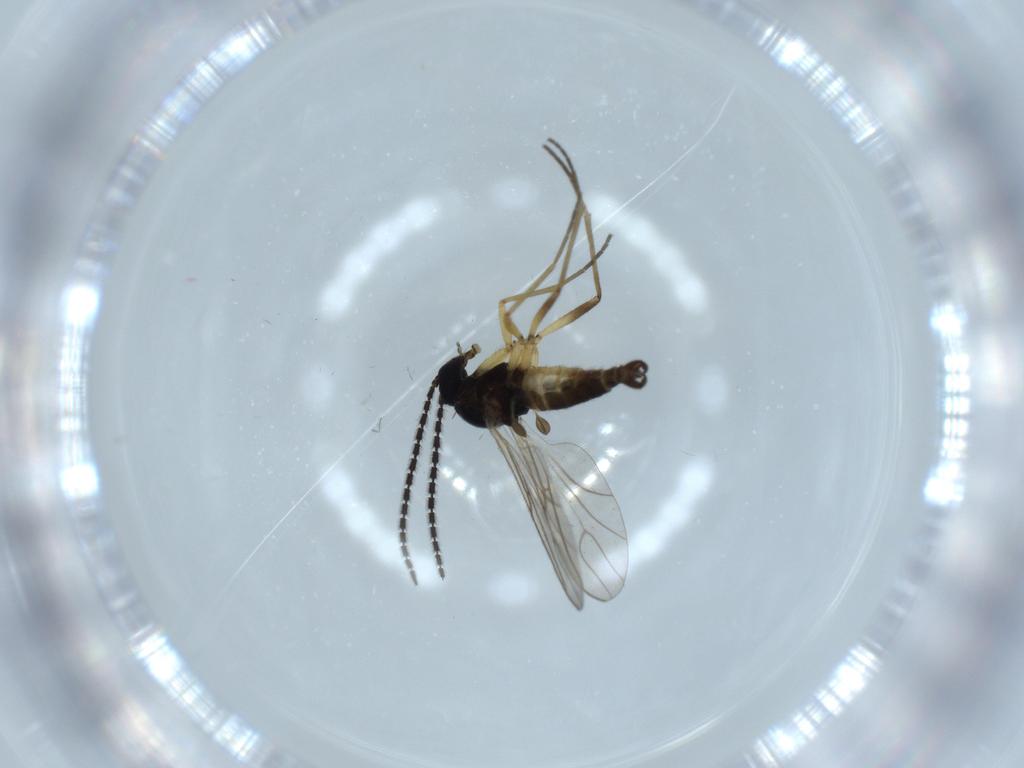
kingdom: Animalia
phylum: Arthropoda
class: Insecta
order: Diptera
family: Sciaridae
